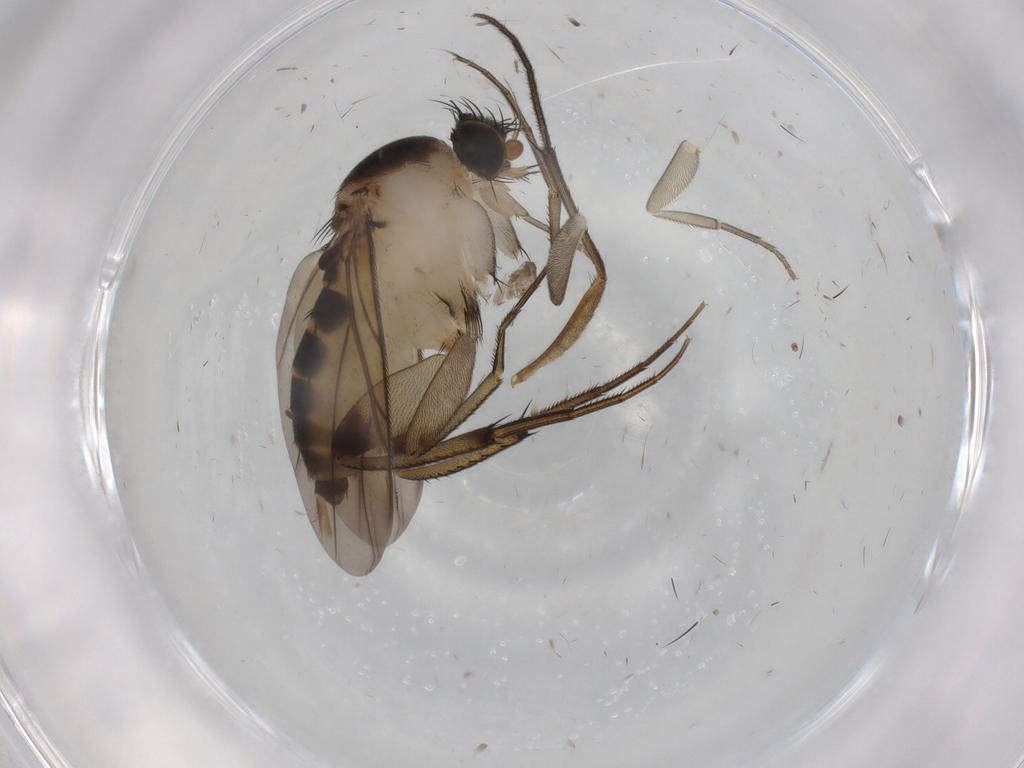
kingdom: Animalia
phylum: Arthropoda
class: Insecta
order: Diptera
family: Phoridae
